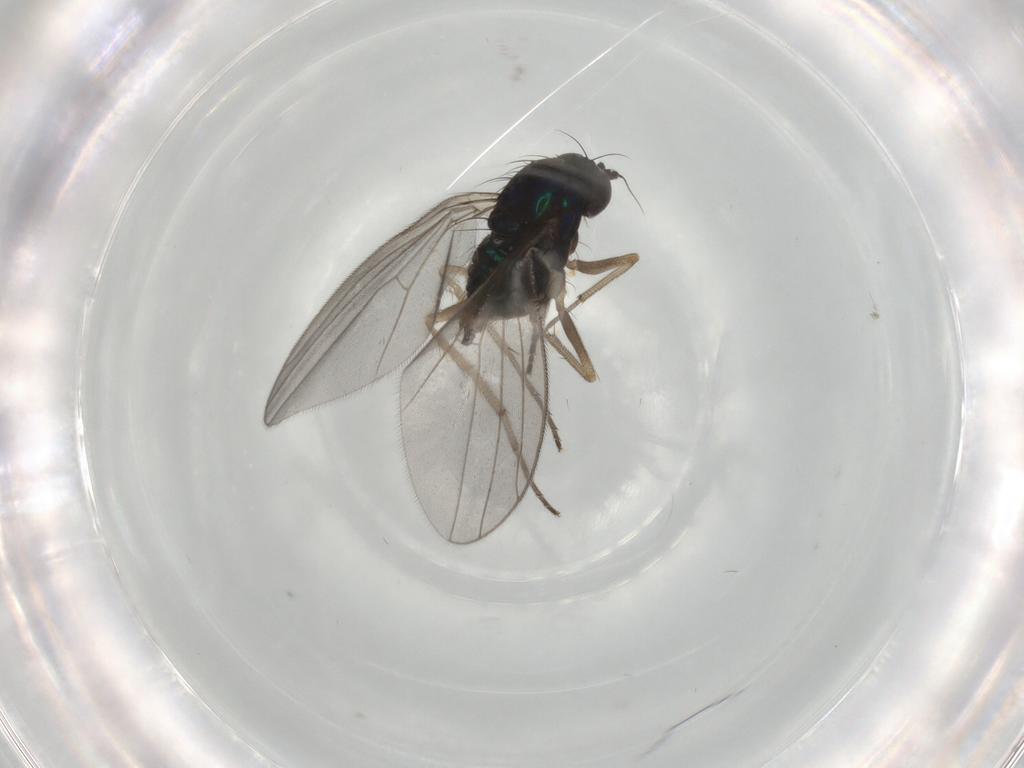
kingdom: Animalia
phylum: Arthropoda
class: Insecta
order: Diptera
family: Dolichopodidae
